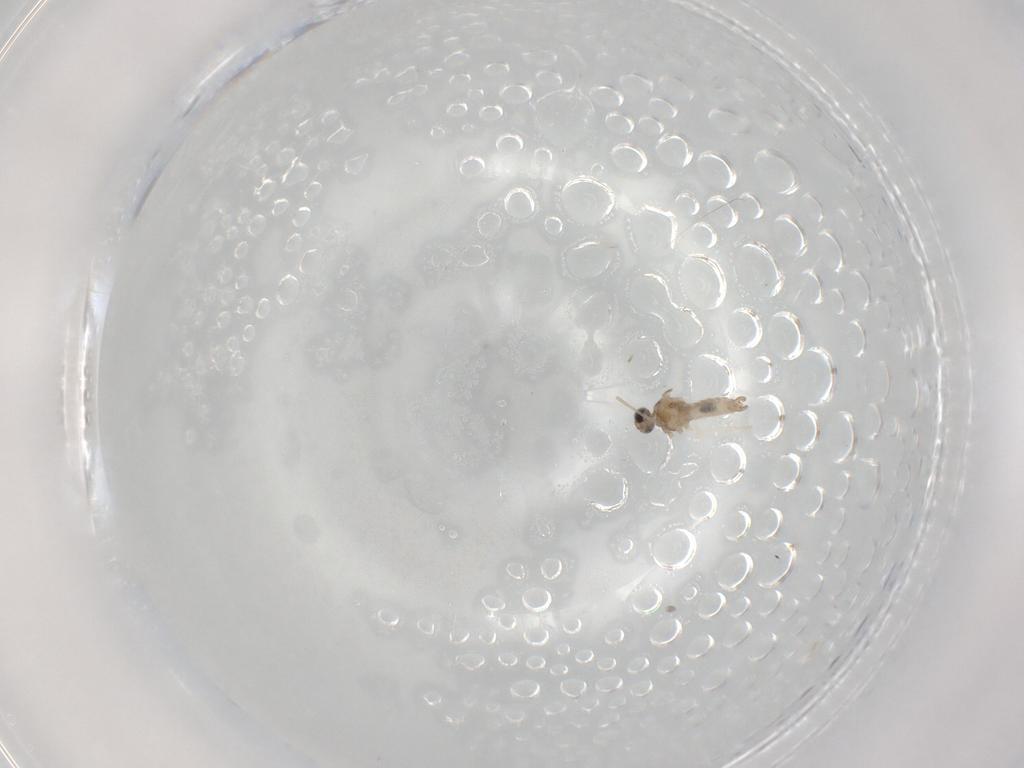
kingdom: Animalia
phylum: Arthropoda
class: Insecta
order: Diptera
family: Cecidomyiidae
